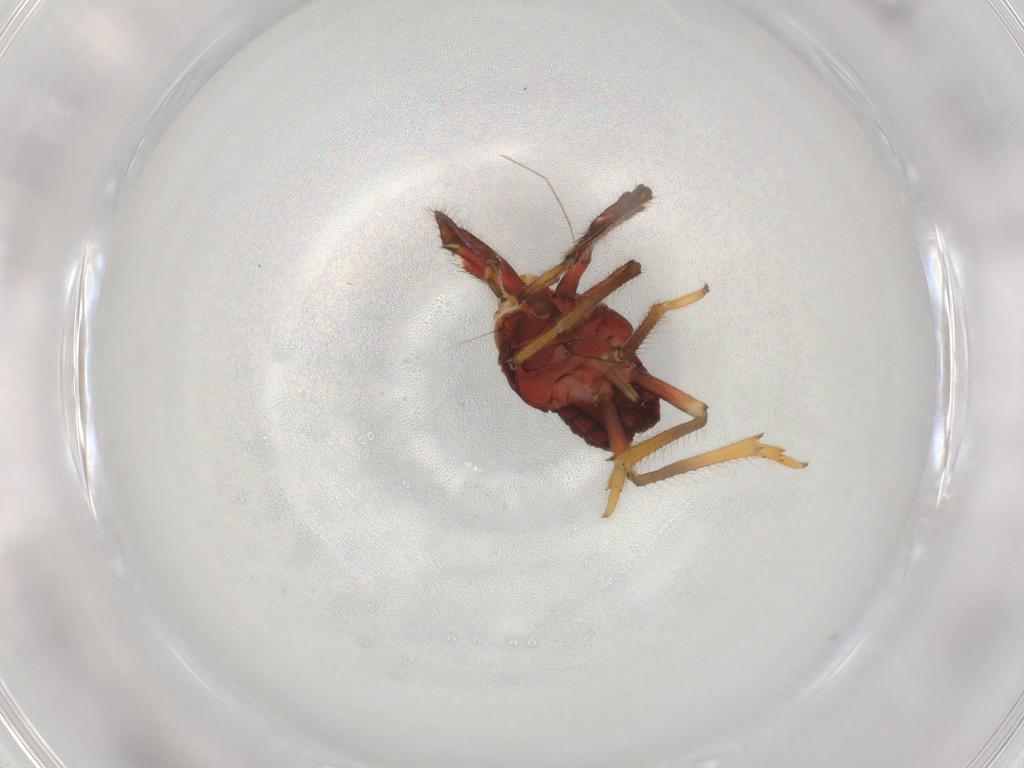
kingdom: Animalia
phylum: Arthropoda
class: Insecta
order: Hemiptera
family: Caliscelidae
